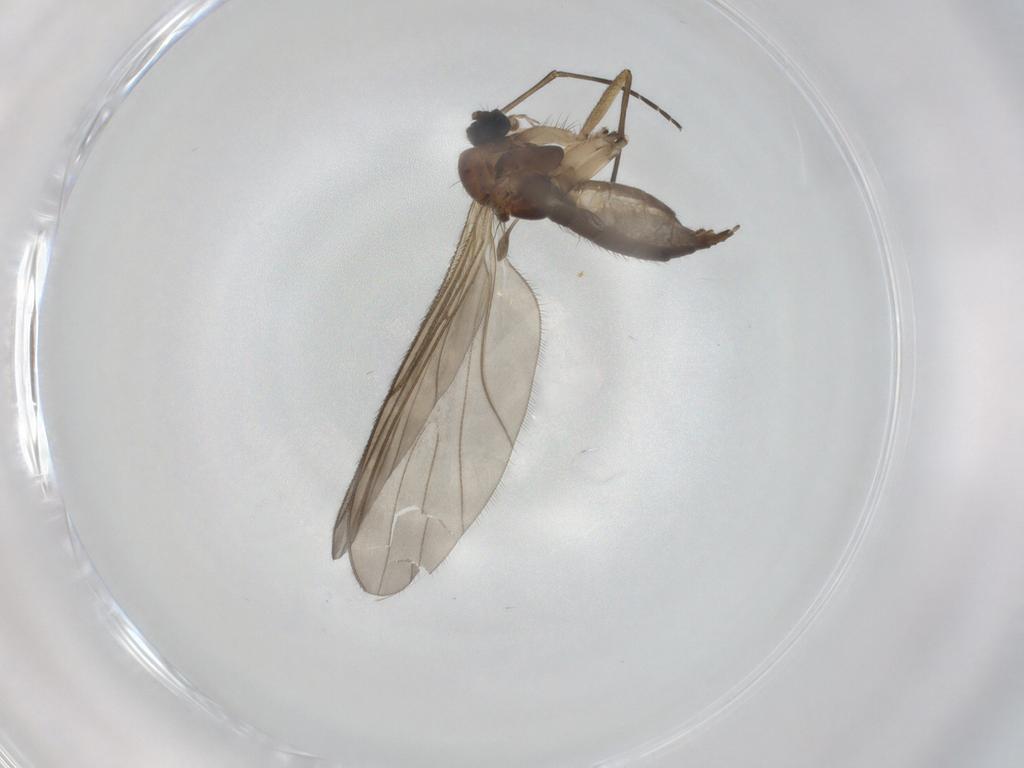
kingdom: Animalia
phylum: Arthropoda
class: Insecta
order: Diptera
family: Sciaridae
